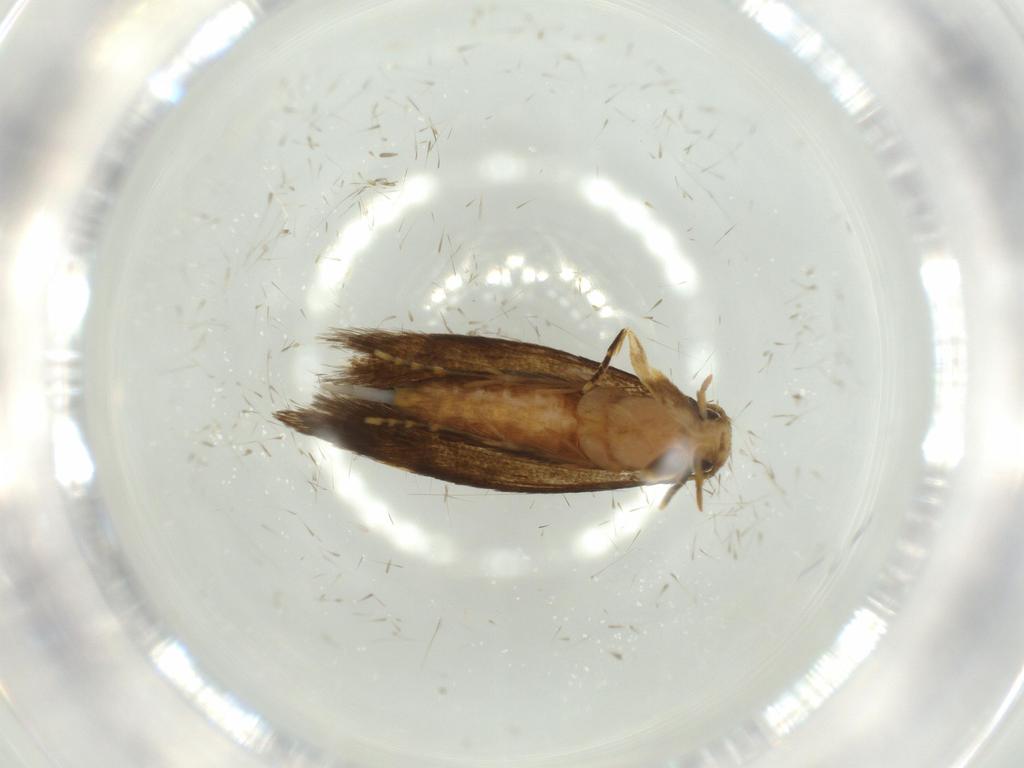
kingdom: Animalia
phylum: Arthropoda
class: Insecta
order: Lepidoptera
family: Tineidae
